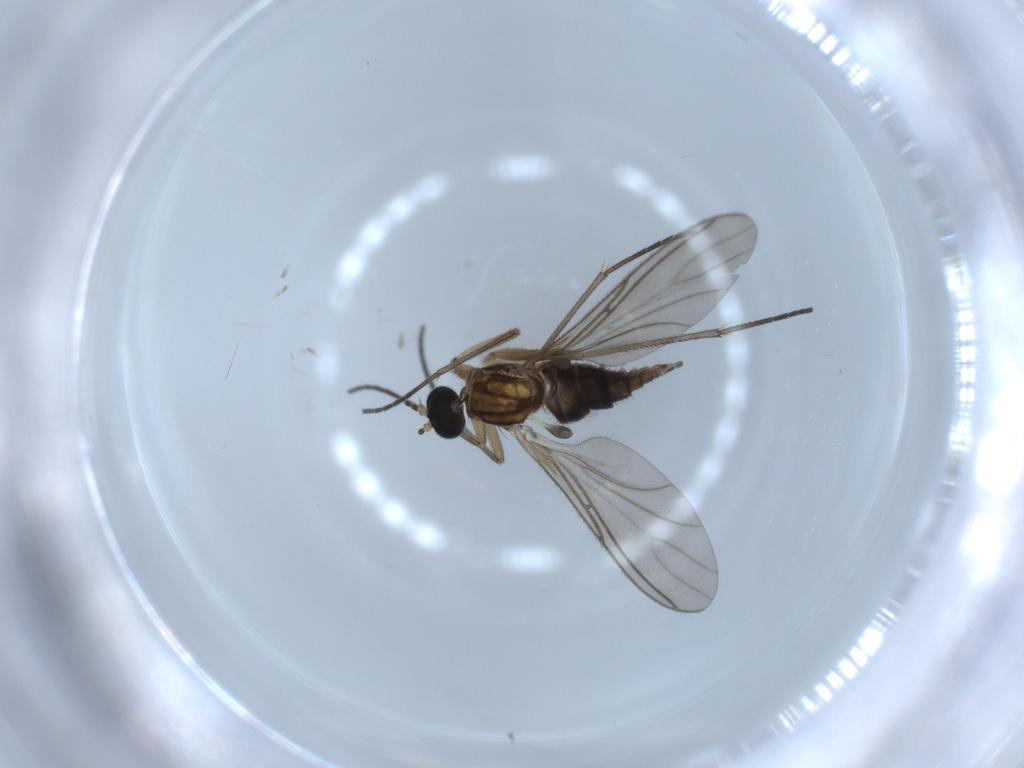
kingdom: Animalia
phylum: Arthropoda
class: Insecta
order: Diptera
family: Sciaridae
